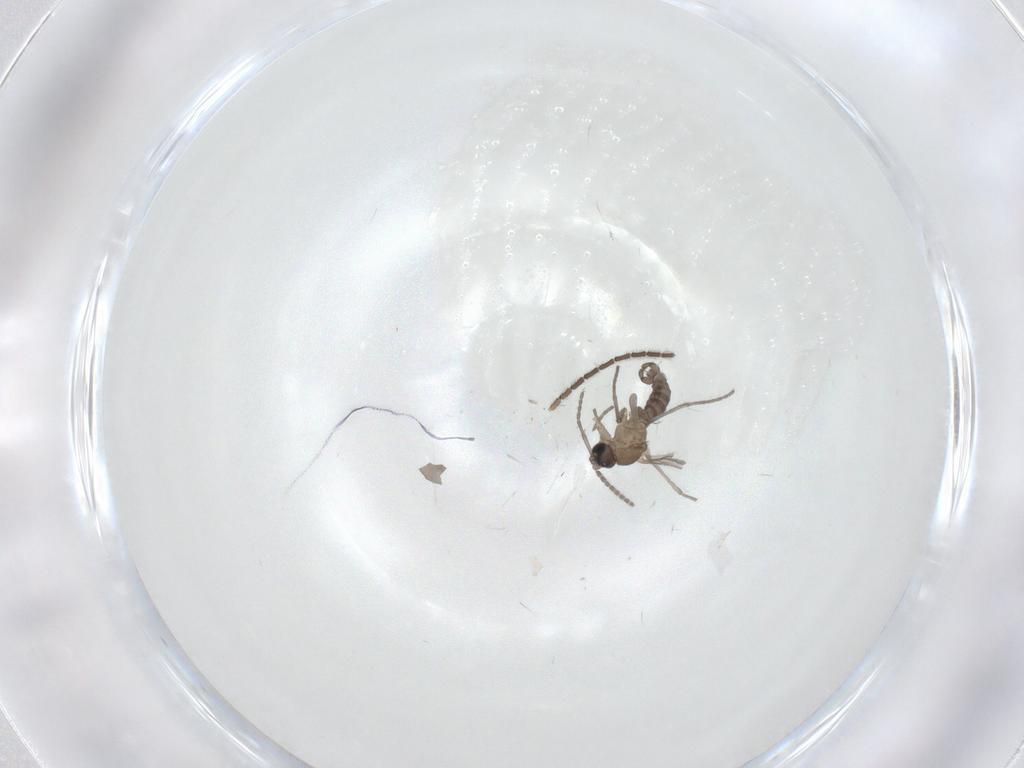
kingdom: Animalia
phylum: Arthropoda
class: Insecta
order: Diptera
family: Sciaridae
